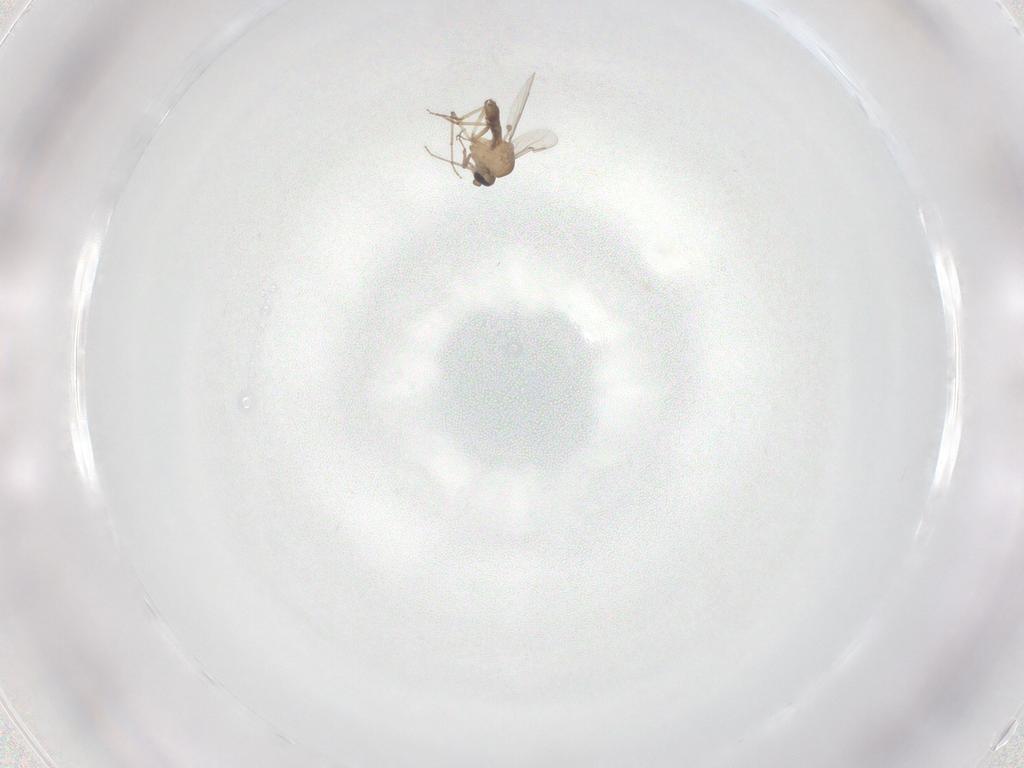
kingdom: Animalia
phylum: Arthropoda
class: Insecta
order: Diptera
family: Ceratopogonidae
